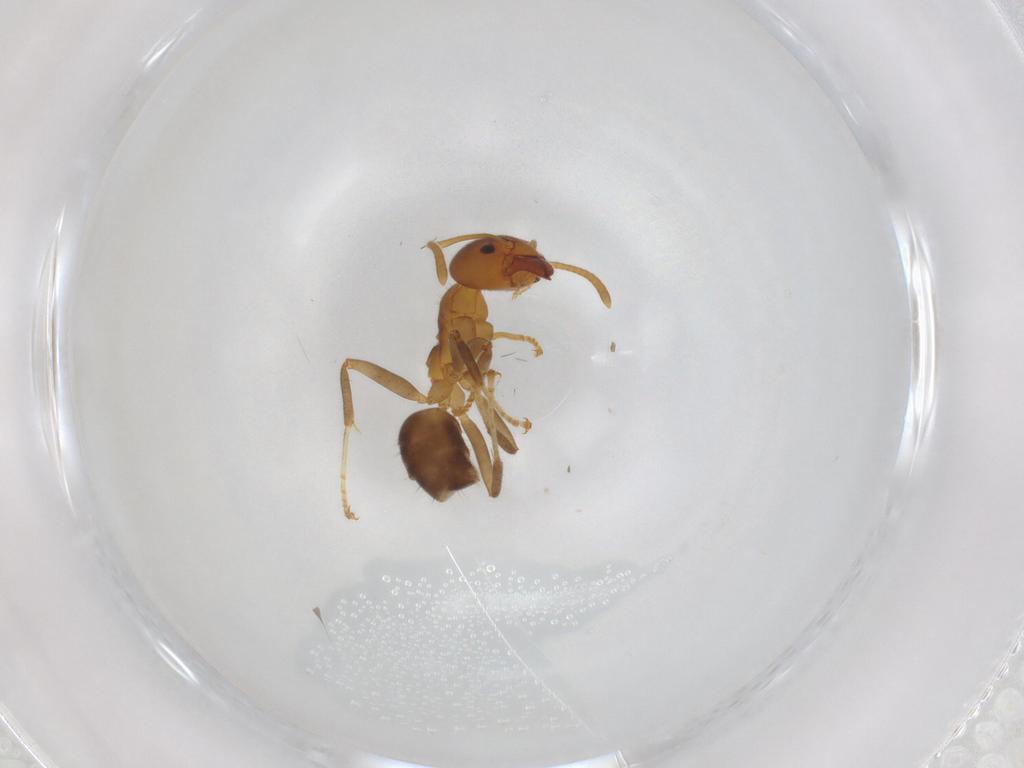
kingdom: Animalia
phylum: Arthropoda
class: Insecta
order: Hymenoptera
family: Formicidae
